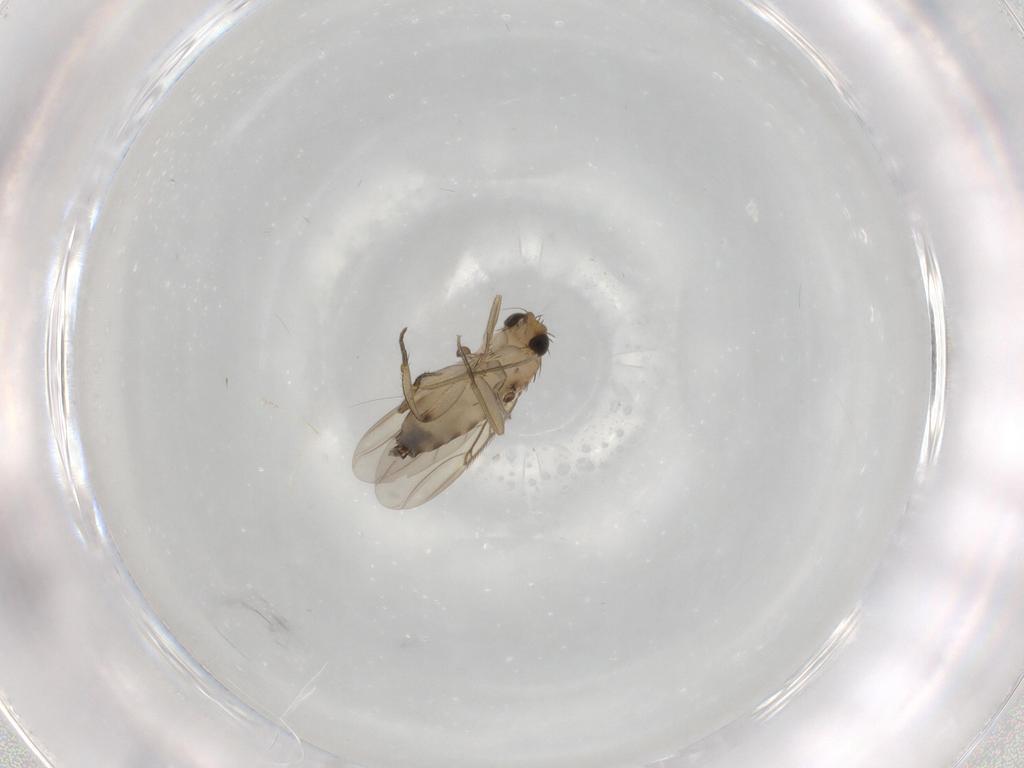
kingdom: Animalia
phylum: Arthropoda
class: Insecta
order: Diptera
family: Phoridae
